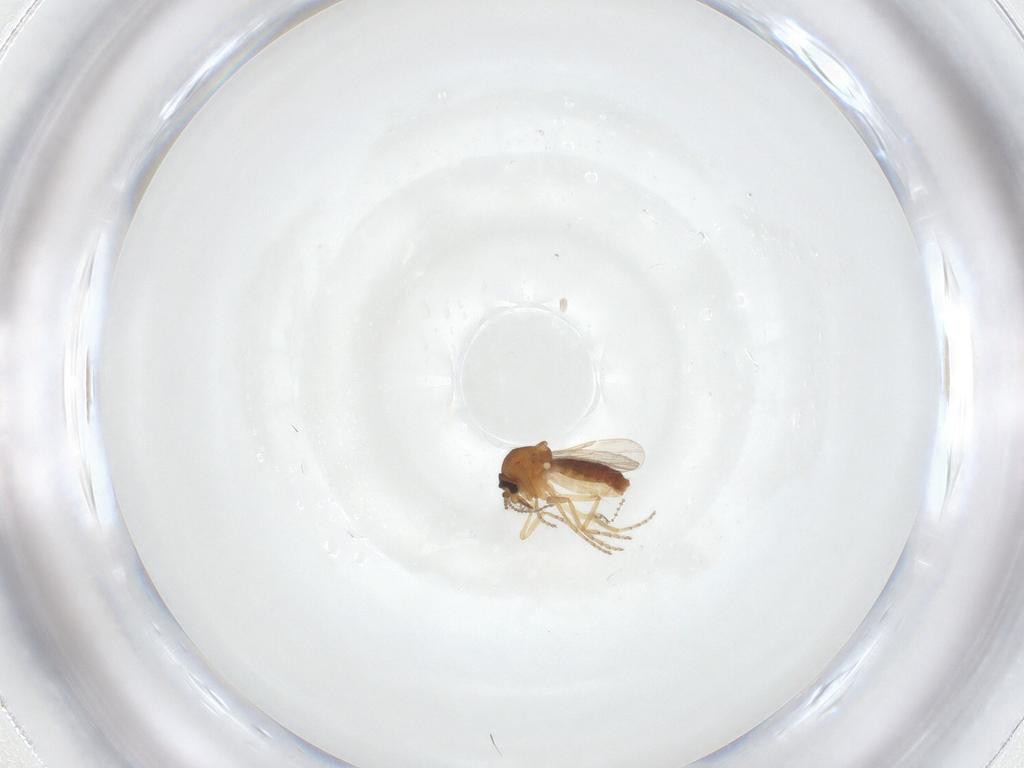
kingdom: Animalia
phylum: Arthropoda
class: Insecta
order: Diptera
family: Ceratopogonidae
